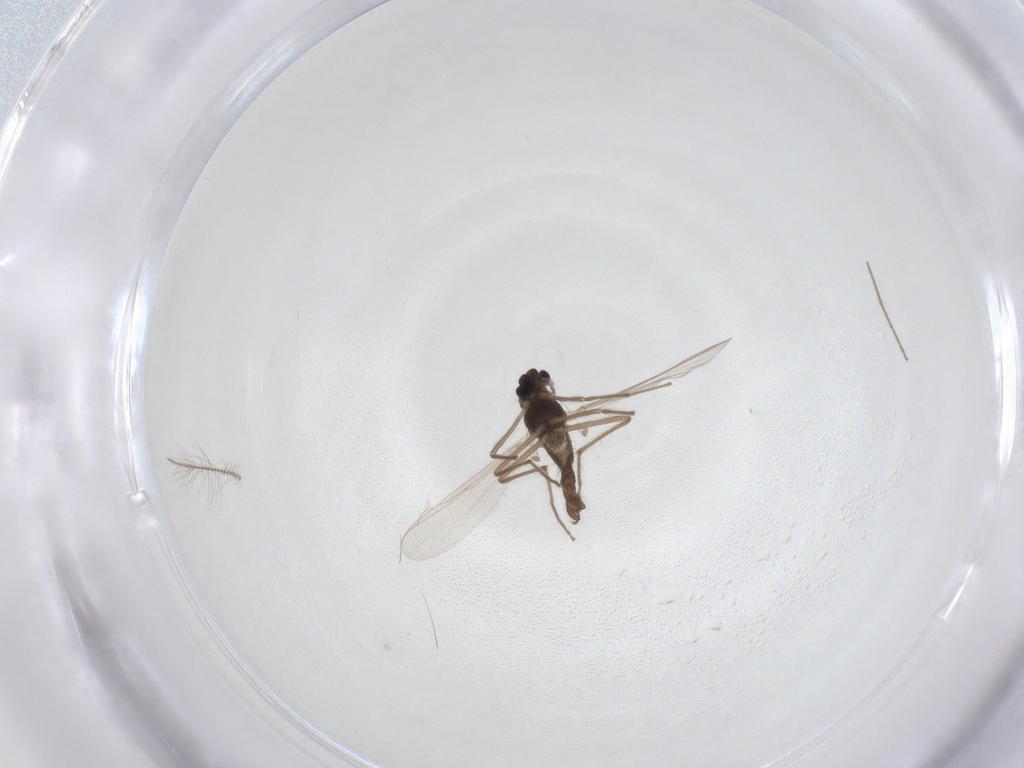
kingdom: Animalia
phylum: Arthropoda
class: Insecta
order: Diptera
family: Chironomidae
